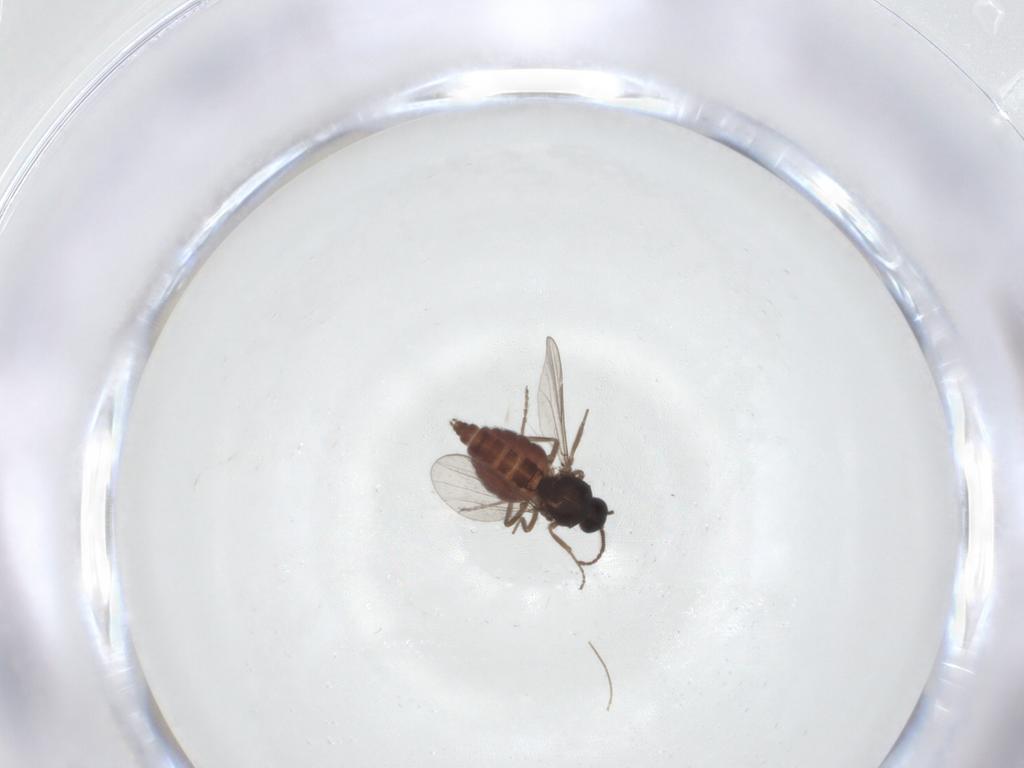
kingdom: Animalia
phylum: Arthropoda
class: Insecta
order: Diptera
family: Ceratopogonidae
